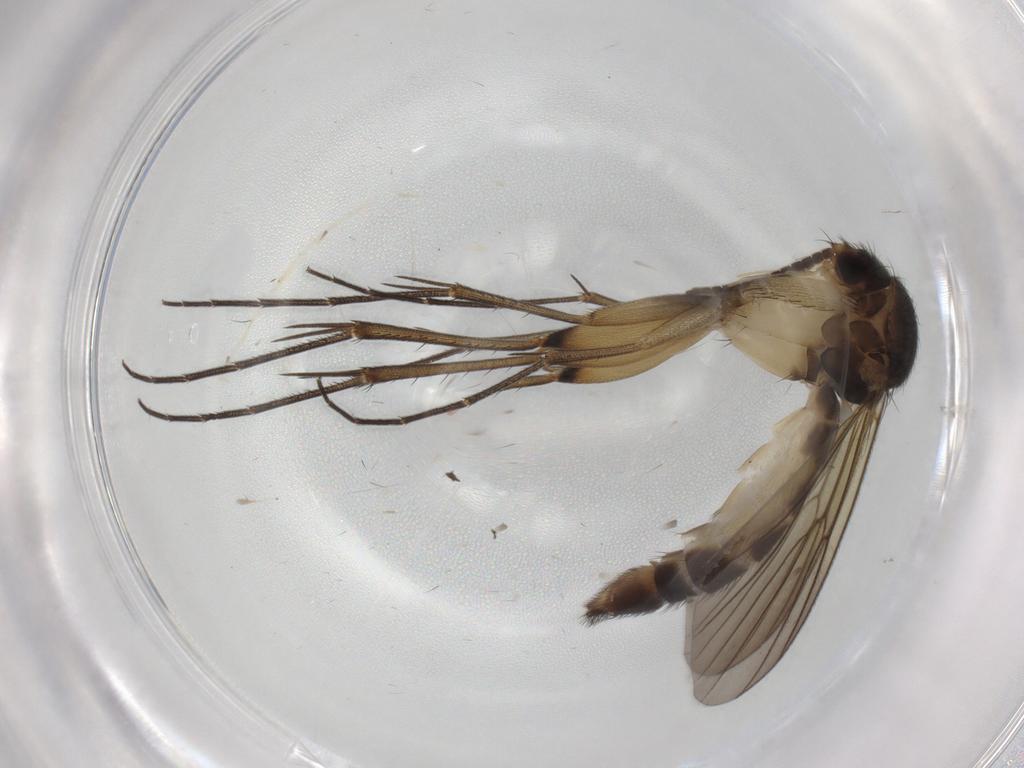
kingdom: Animalia
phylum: Arthropoda
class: Insecta
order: Diptera
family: Mycetophilidae
